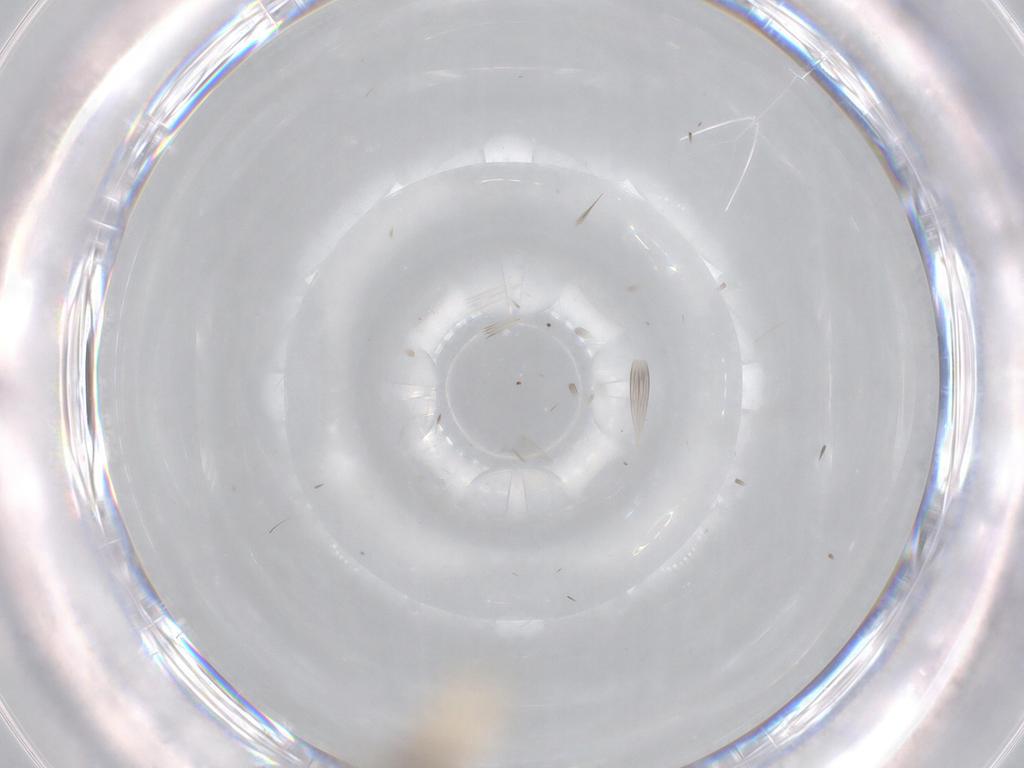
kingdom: Animalia
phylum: Arthropoda
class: Insecta
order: Diptera
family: Cecidomyiidae
